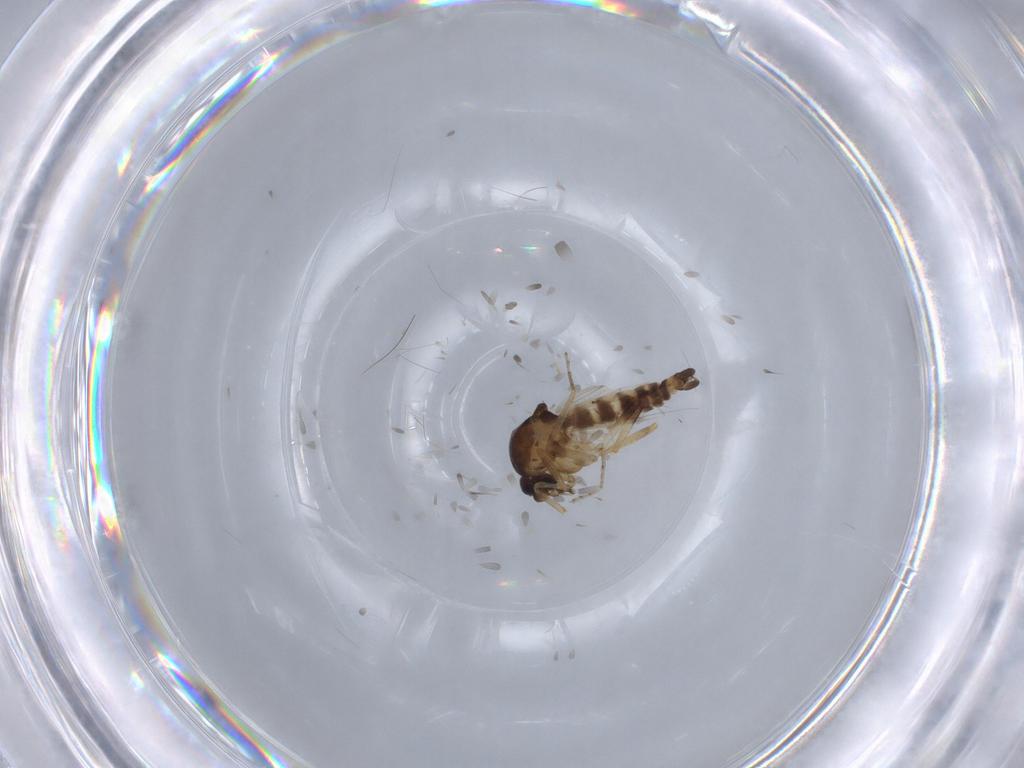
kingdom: Animalia
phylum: Arthropoda
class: Insecta
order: Diptera
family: Ceratopogonidae
